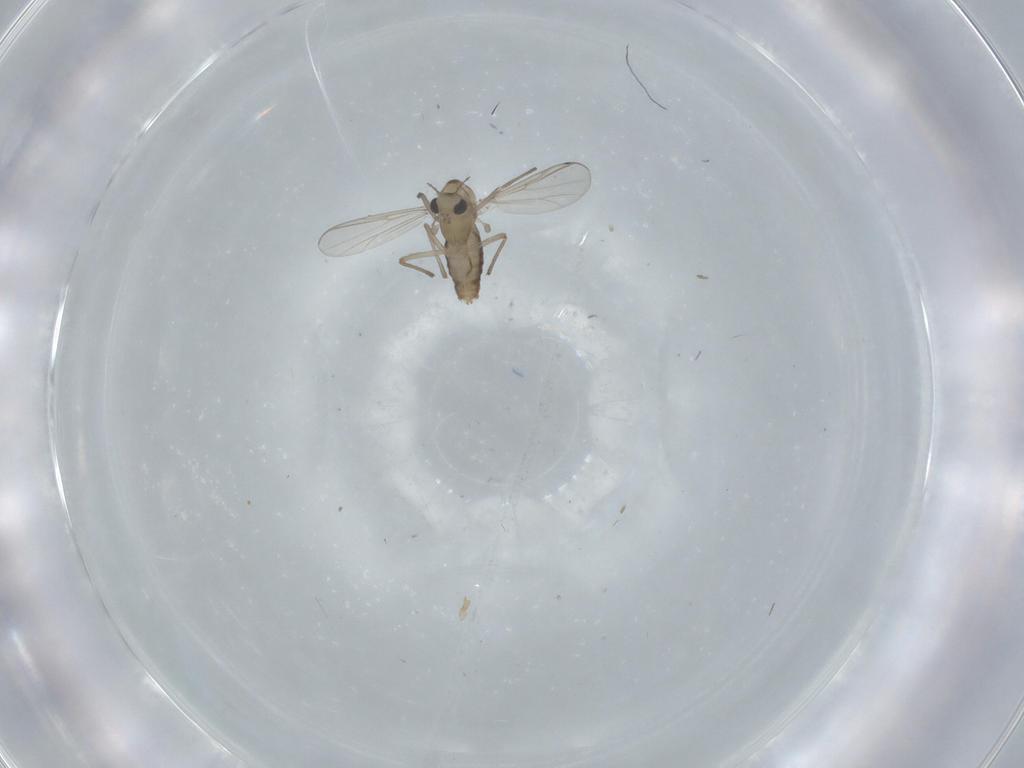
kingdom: Animalia
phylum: Arthropoda
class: Insecta
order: Diptera
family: Chironomidae
